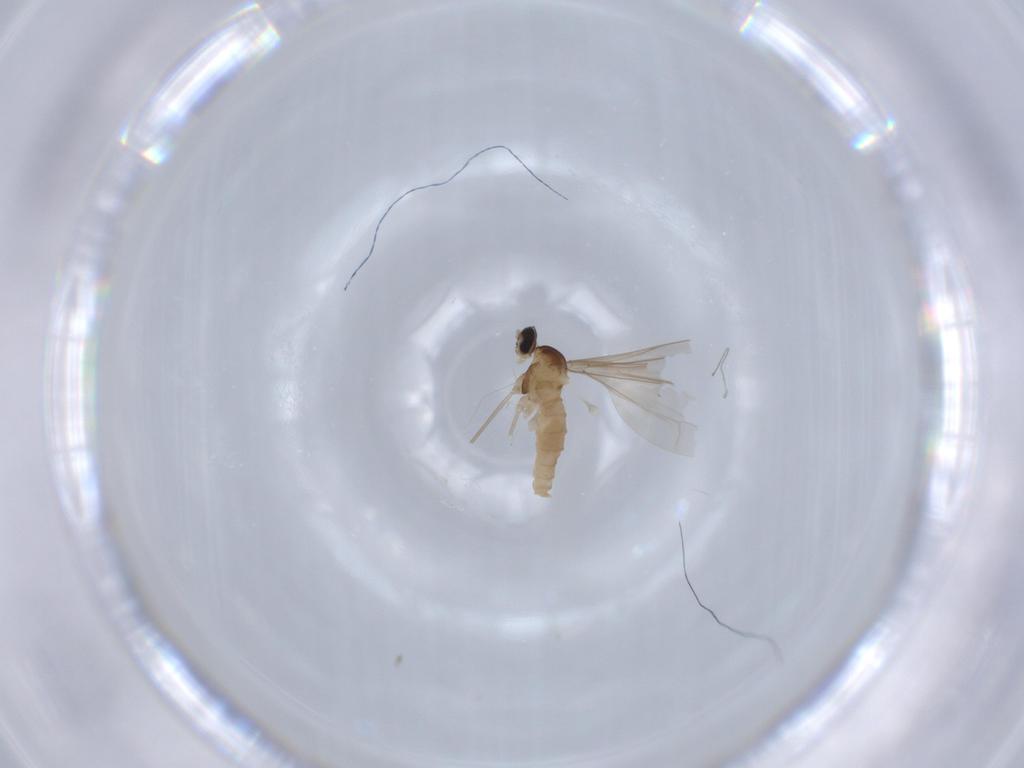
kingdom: Animalia
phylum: Arthropoda
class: Insecta
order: Diptera
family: Cecidomyiidae
